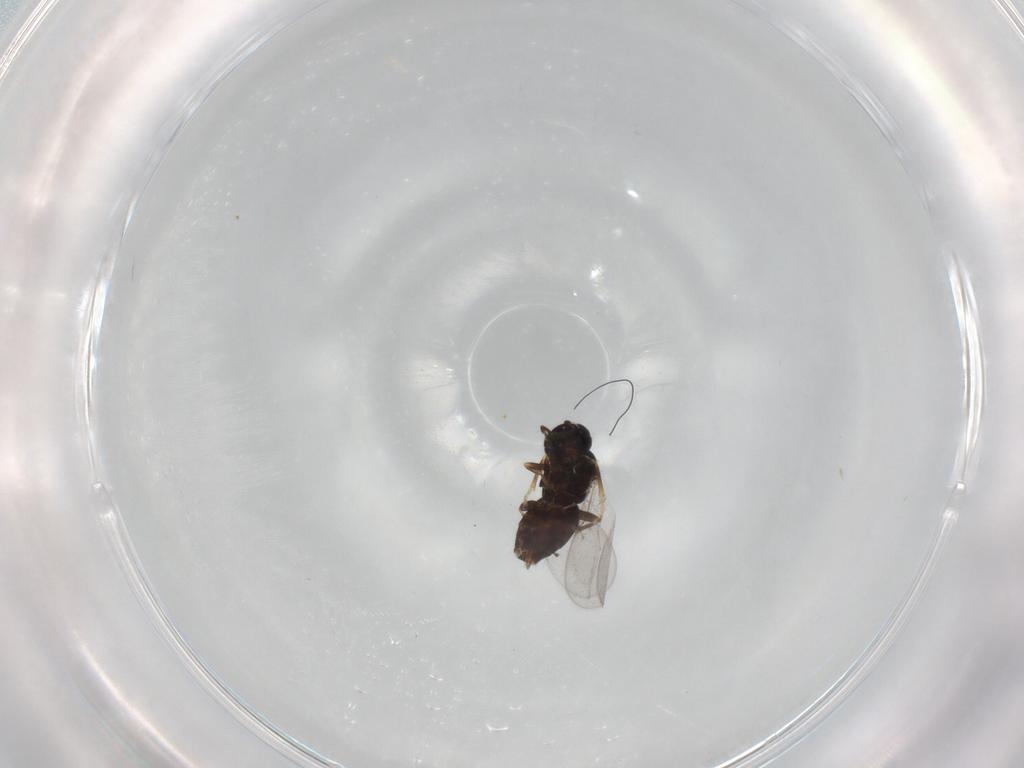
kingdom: Animalia
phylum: Arthropoda
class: Insecta
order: Hymenoptera
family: Encyrtidae
